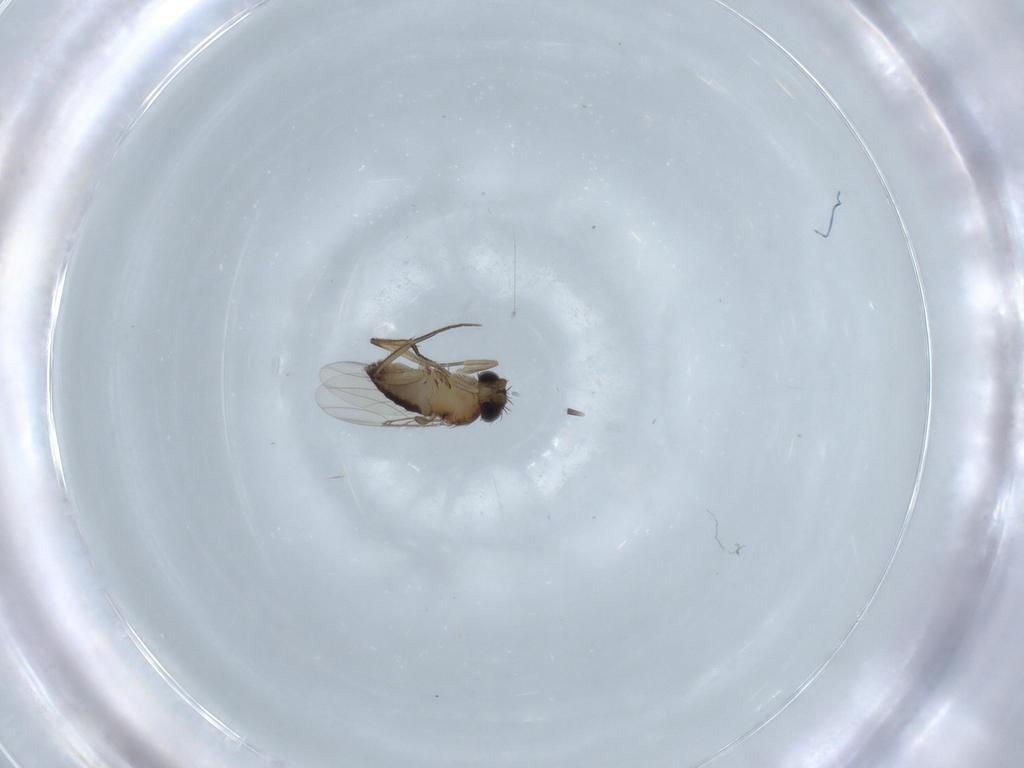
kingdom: Animalia
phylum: Arthropoda
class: Insecta
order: Diptera
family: Phoridae
